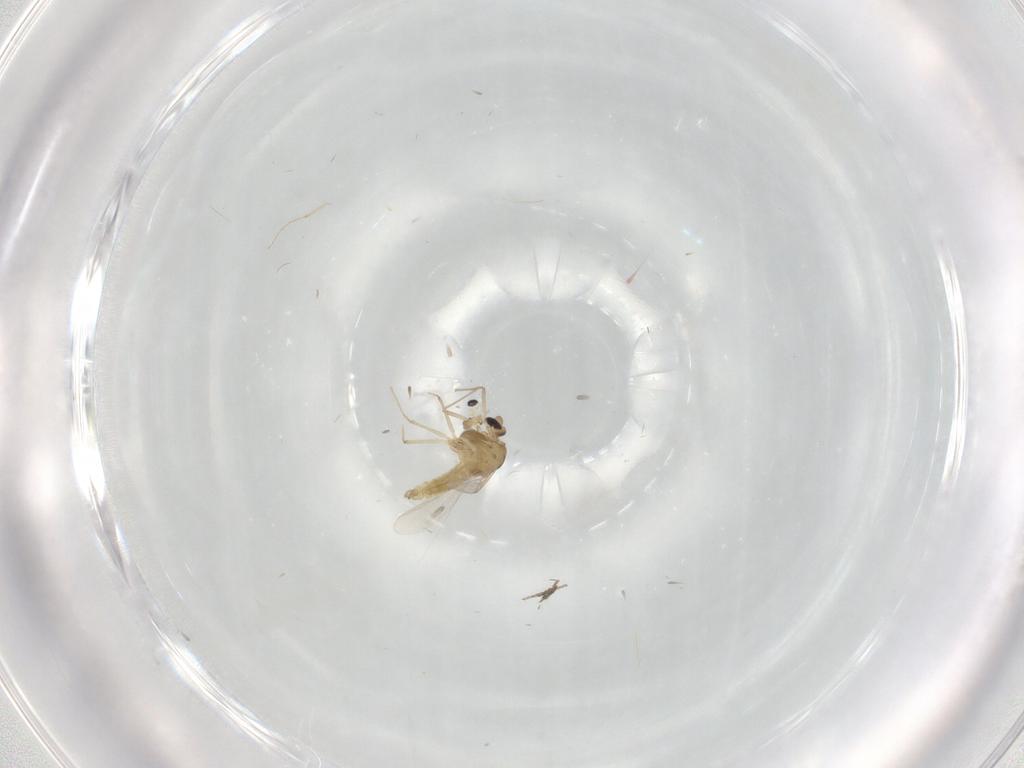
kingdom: Animalia
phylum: Arthropoda
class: Insecta
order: Diptera
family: Chironomidae
